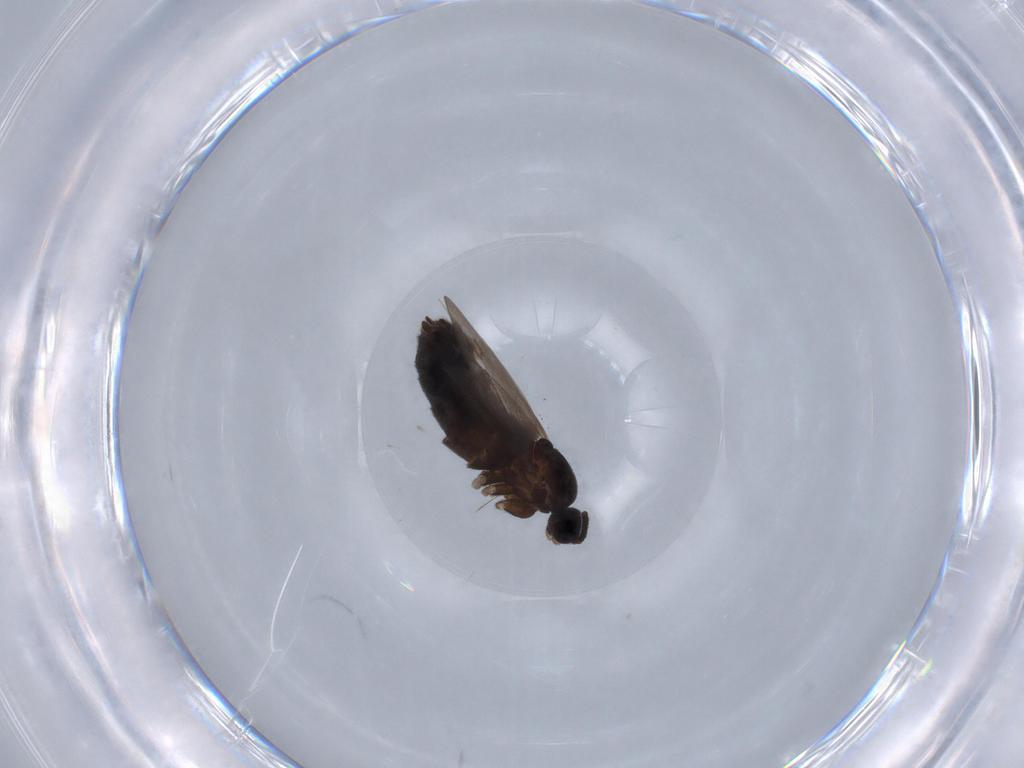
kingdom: Animalia
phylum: Arthropoda
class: Insecta
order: Diptera
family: Scatopsidae
